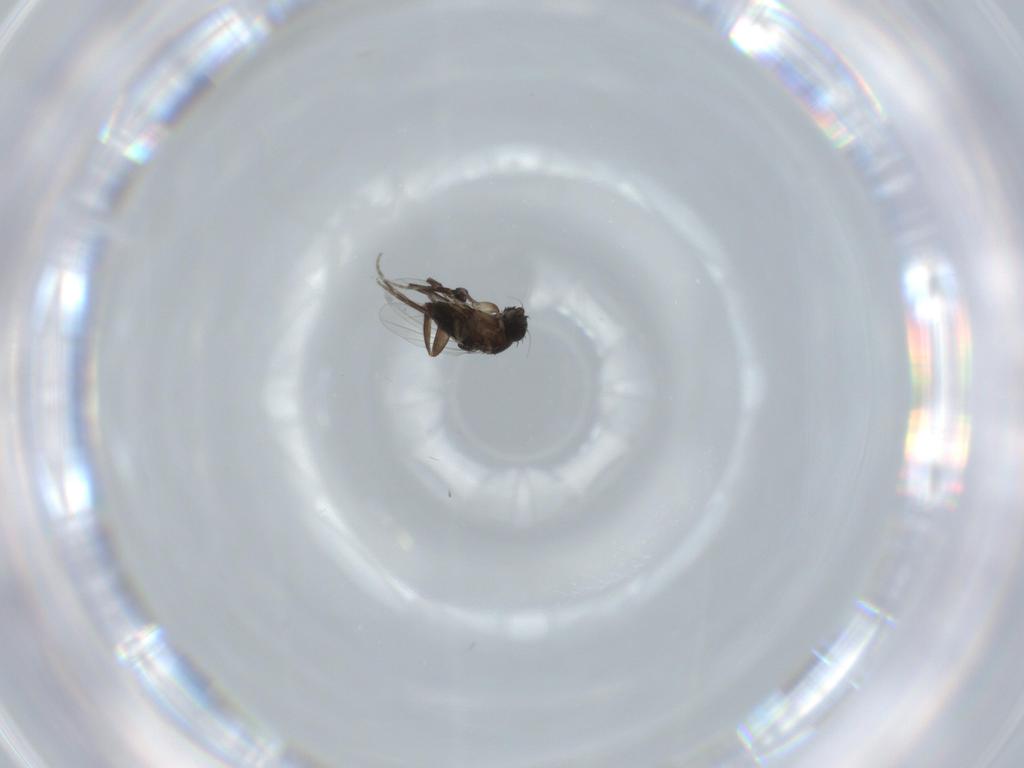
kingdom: Animalia
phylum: Arthropoda
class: Insecta
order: Diptera
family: Phoridae
